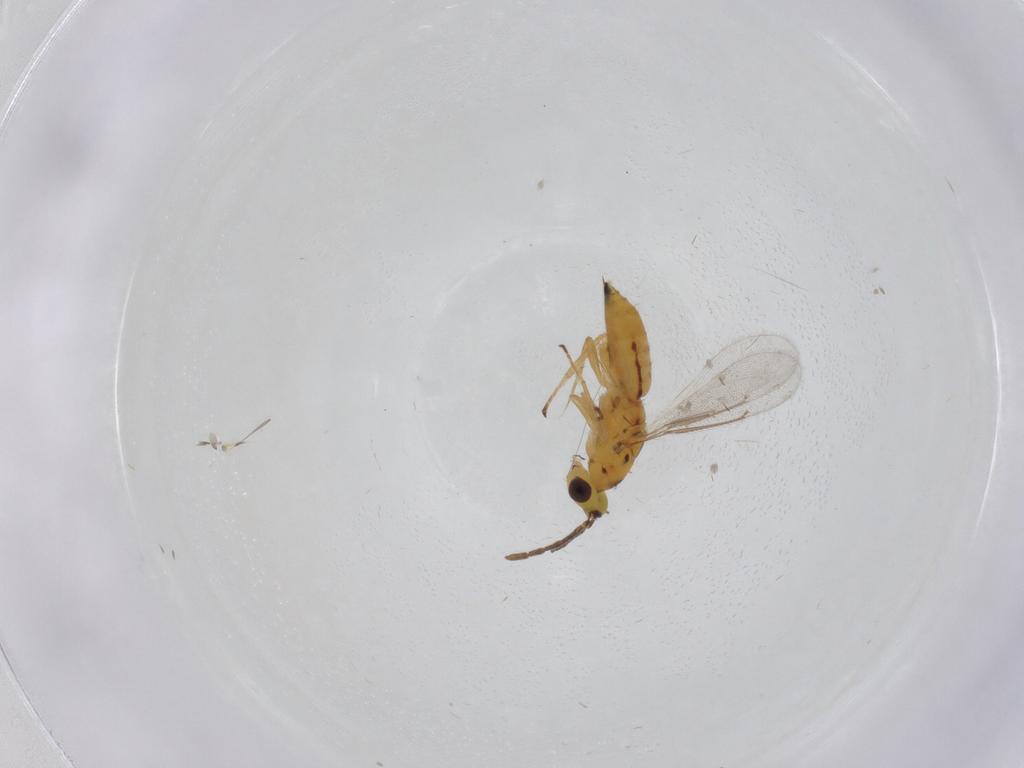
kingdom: Animalia
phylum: Arthropoda
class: Insecta
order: Hymenoptera
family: Eulophidae
